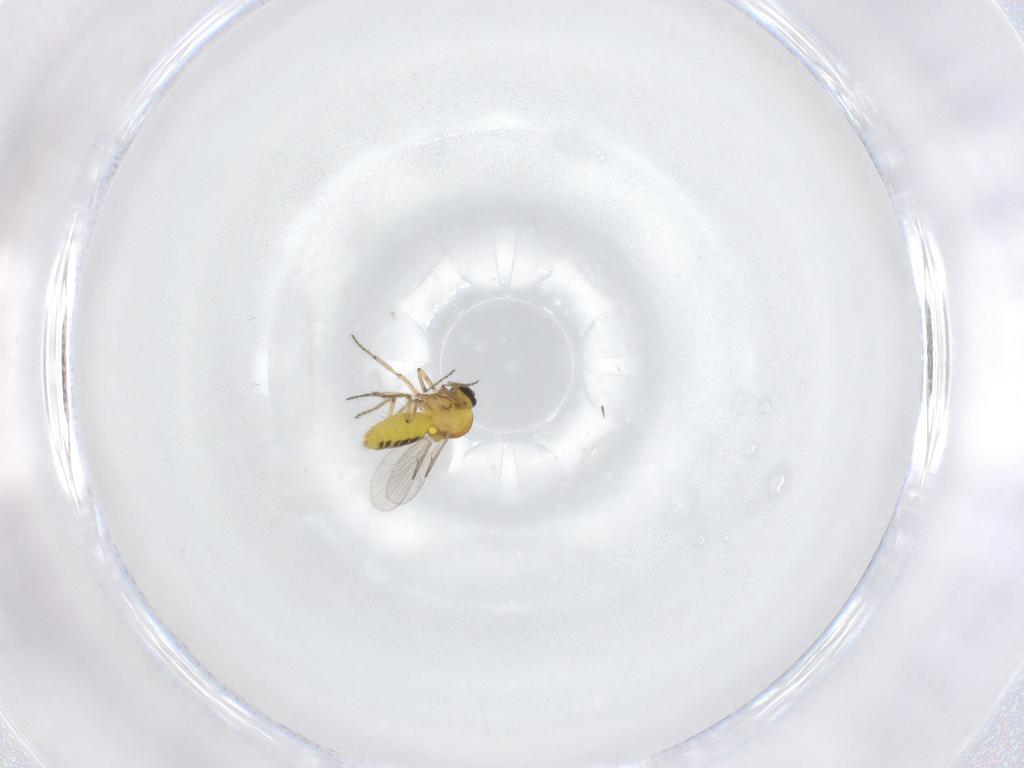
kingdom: Animalia
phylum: Arthropoda
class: Insecta
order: Diptera
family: Ceratopogonidae
